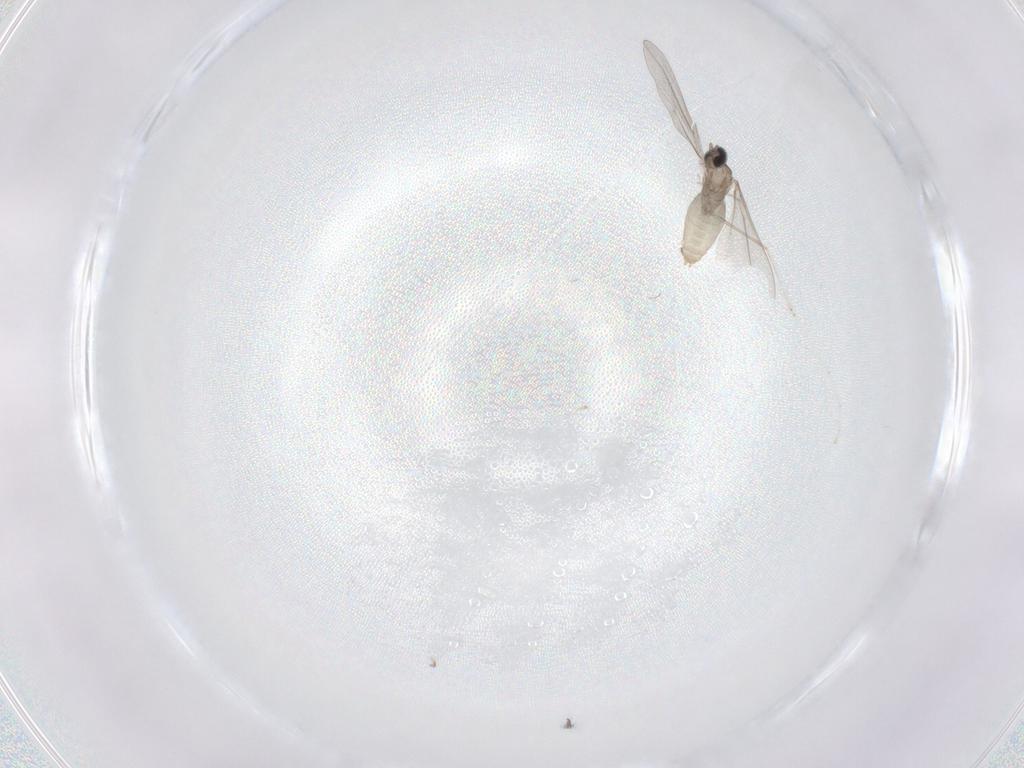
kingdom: Animalia
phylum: Arthropoda
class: Insecta
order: Diptera
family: Cecidomyiidae
